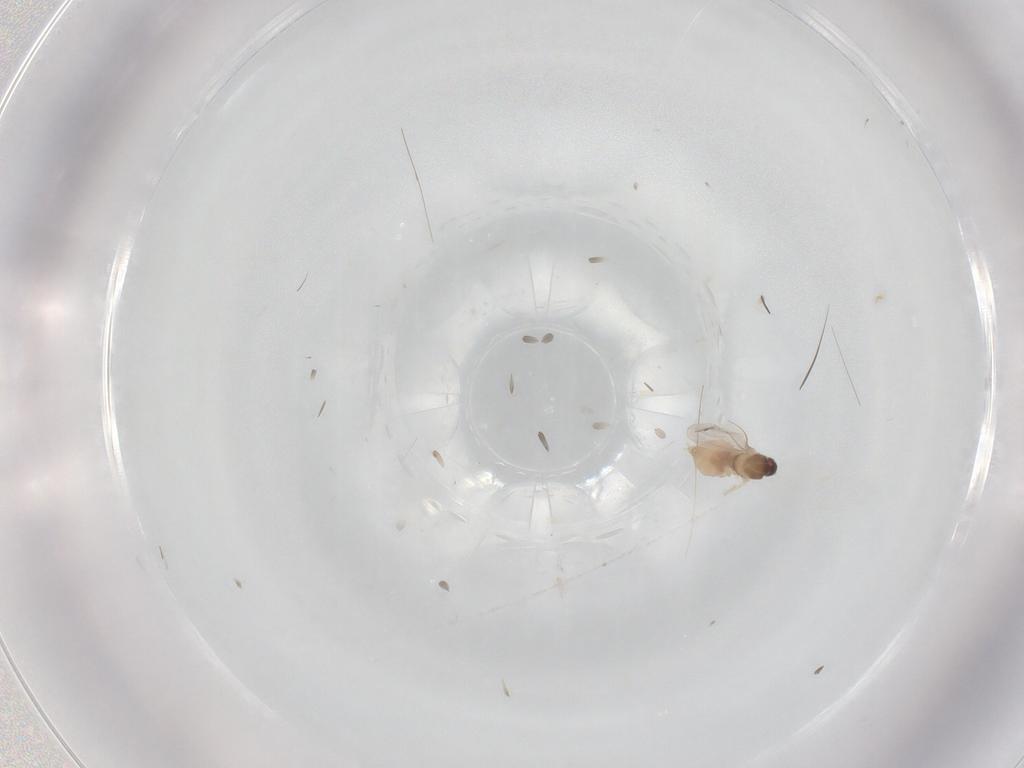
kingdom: Animalia
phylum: Arthropoda
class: Insecta
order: Diptera
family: Cecidomyiidae
